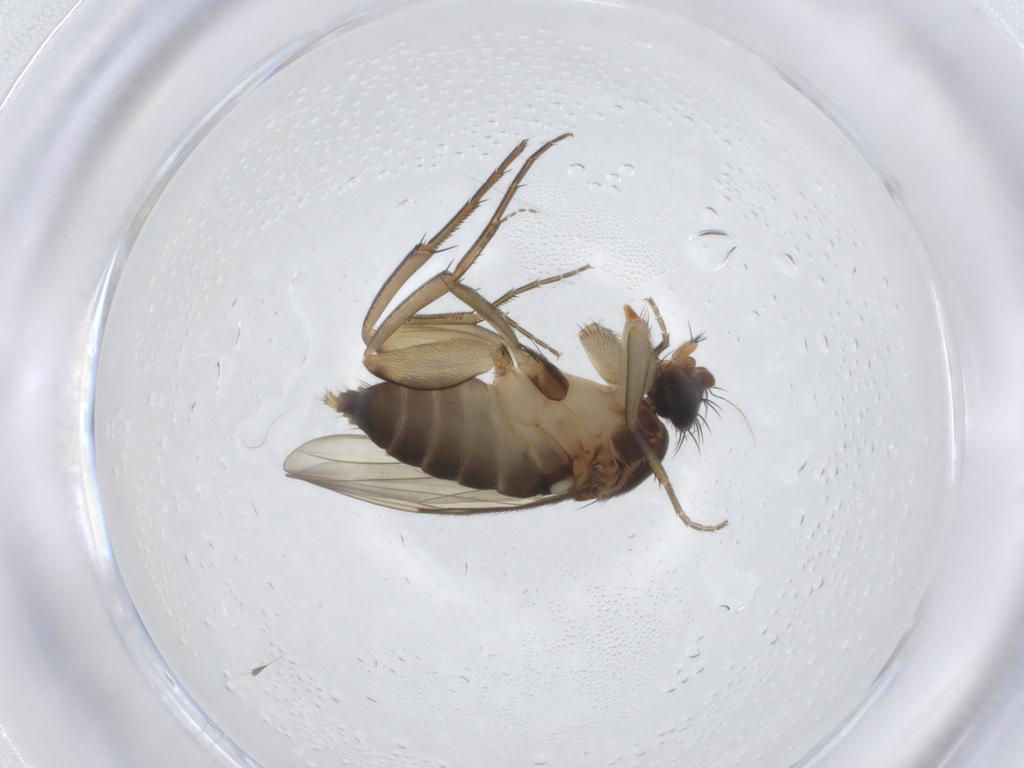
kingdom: Animalia
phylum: Arthropoda
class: Insecta
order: Diptera
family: Phoridae
